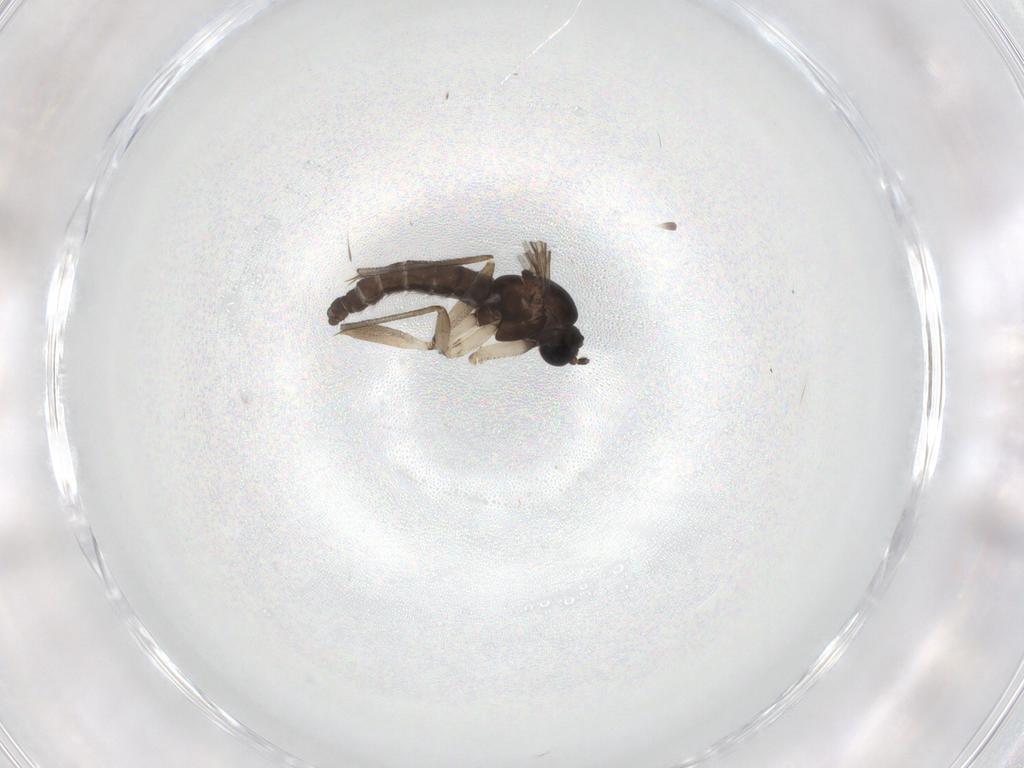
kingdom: Animalia
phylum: Arthropoda
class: Insecta
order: Diptera
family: Sciaridae
